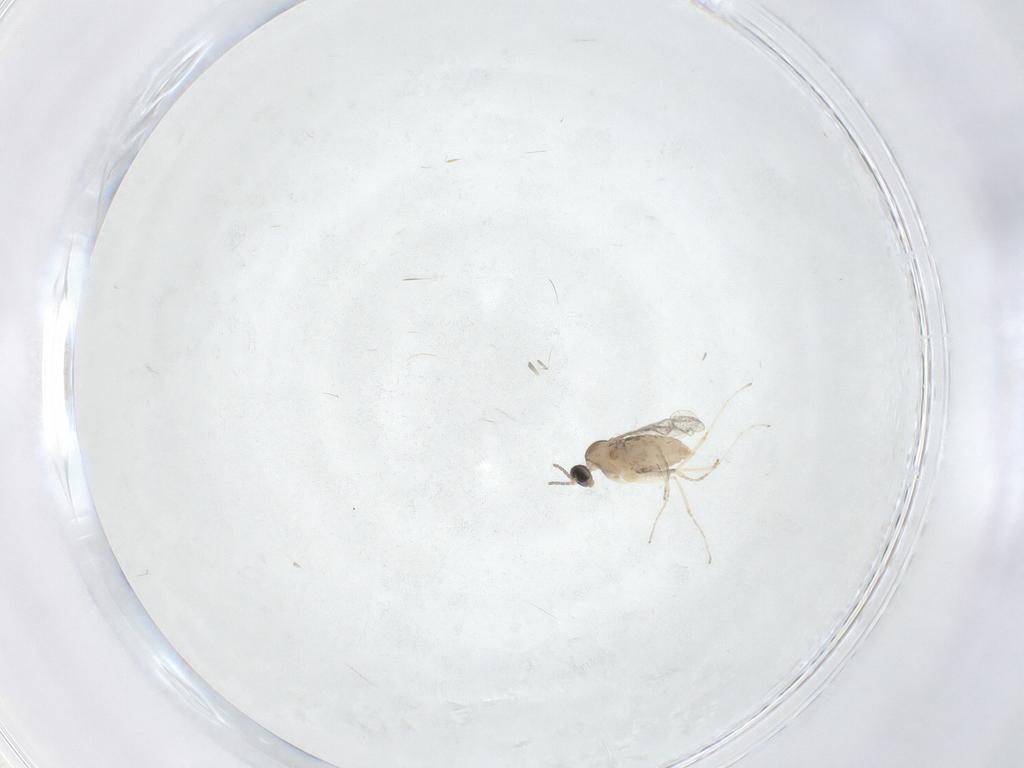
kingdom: Animalia
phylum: Arthropoda
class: Insecta
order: Diptera
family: Cecidomyiidae
